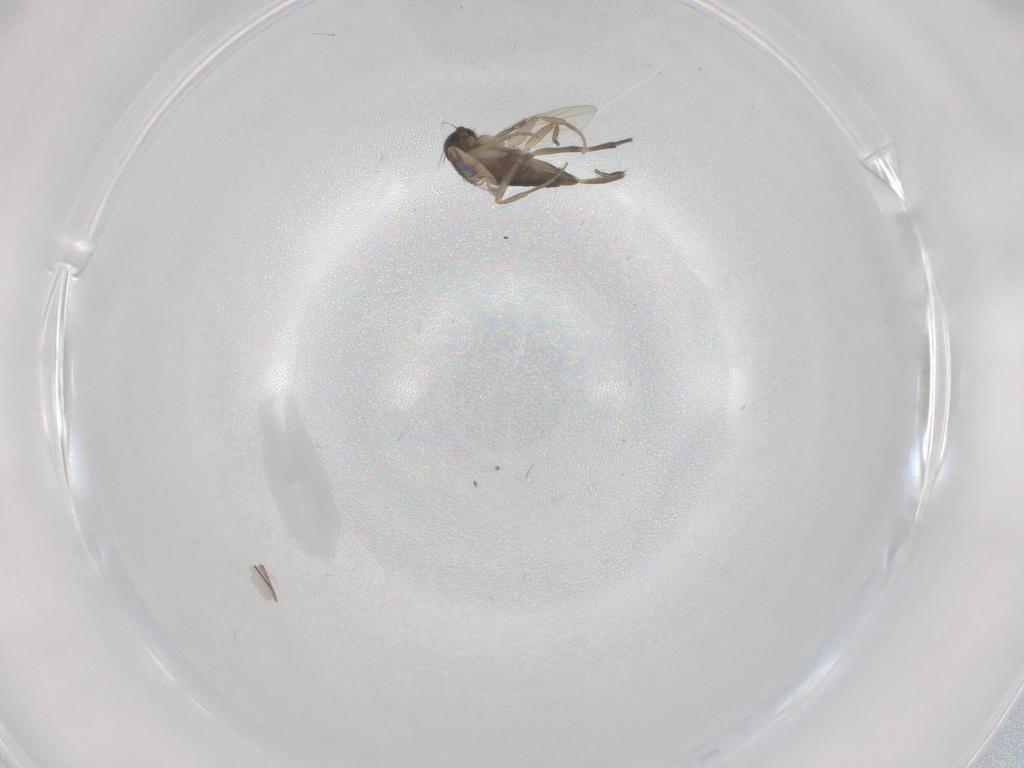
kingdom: Animalia
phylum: Arthropoda
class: Insecta
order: Diptera
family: Phoridae
